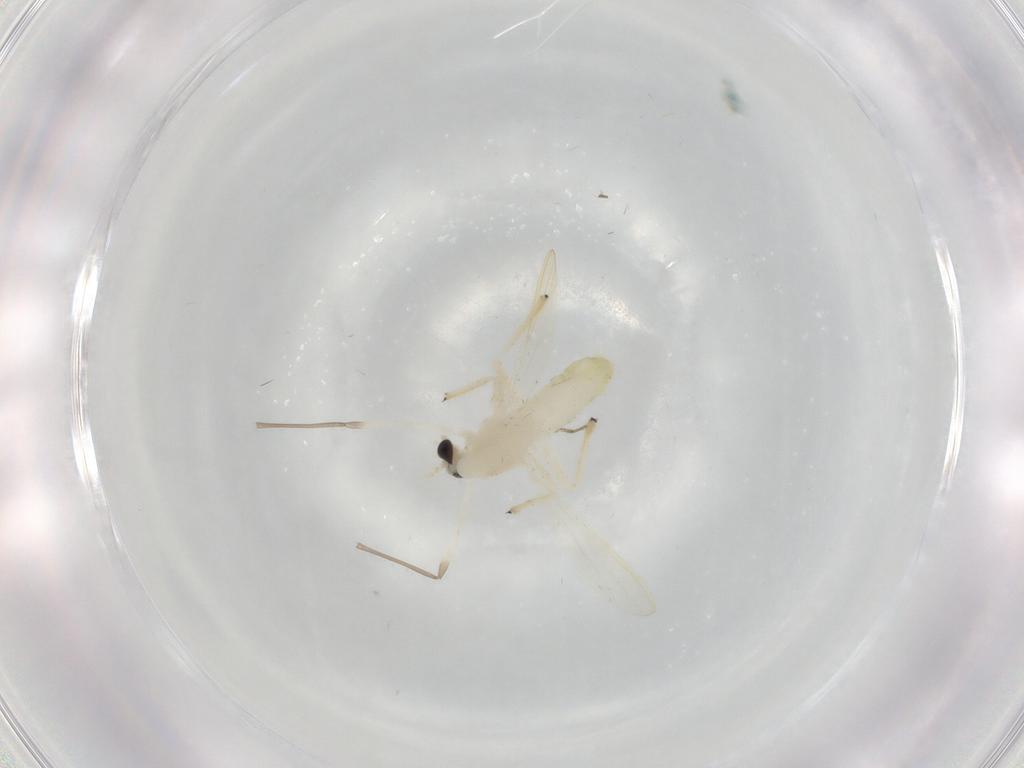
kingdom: Animalia
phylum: Arthropoda
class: Insecta
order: Diptera
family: Chironomidae
